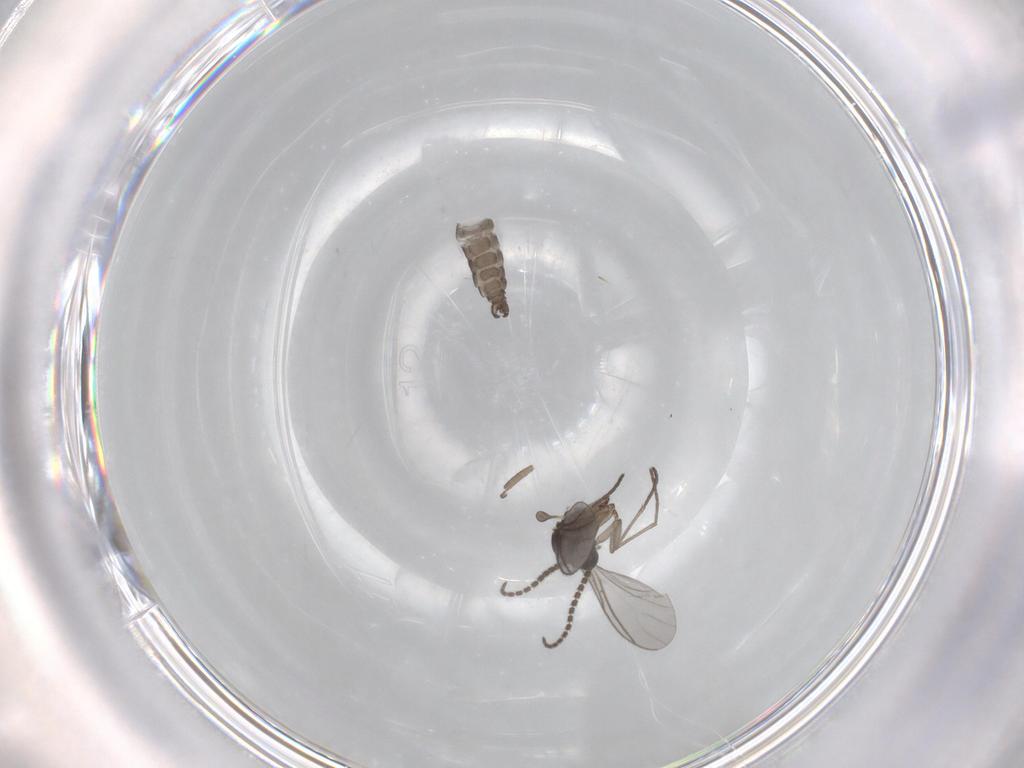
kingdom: Animalia
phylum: Arthropoda
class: Insecta
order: Diptera
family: Sciaridae
